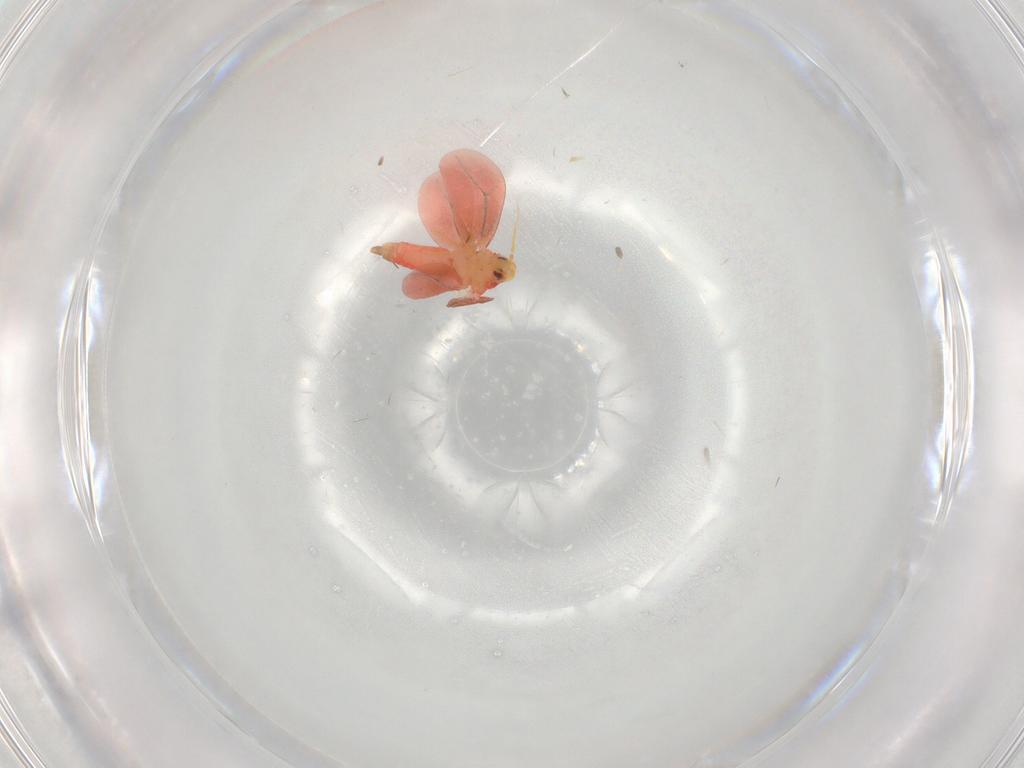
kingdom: Animalia
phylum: Arthropoda
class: Insecta
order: Hemiptera
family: Aleyrodidae
